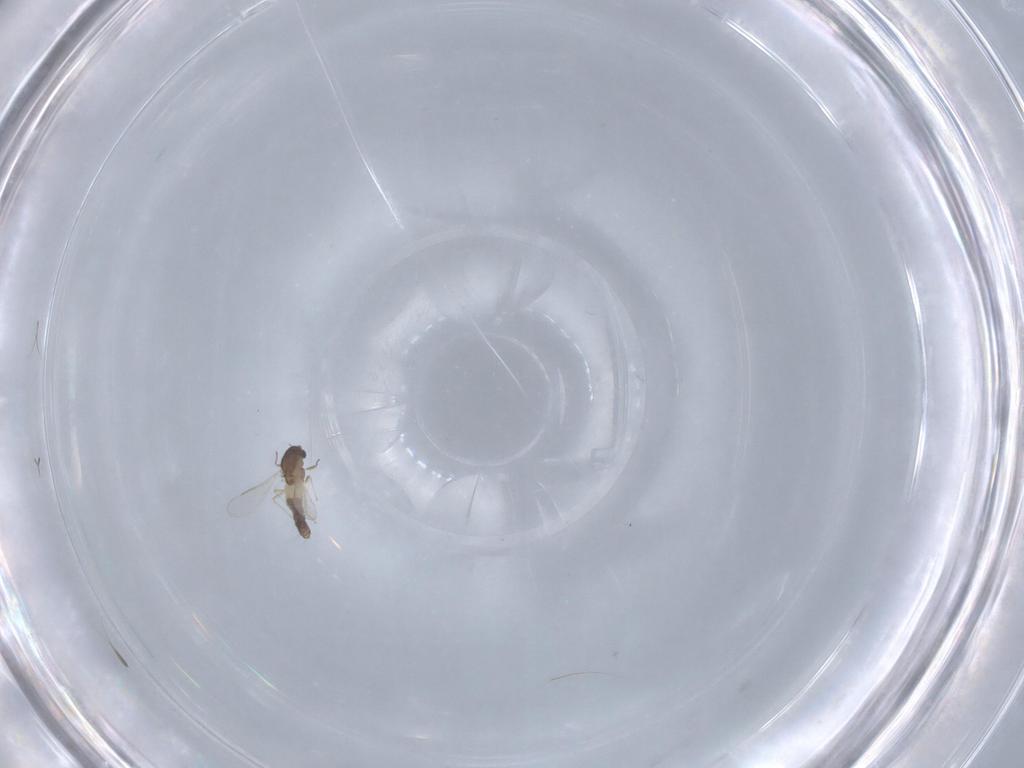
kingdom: Animalia
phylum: Arthropoda
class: Insecta
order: Diptera
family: Chironomidae
